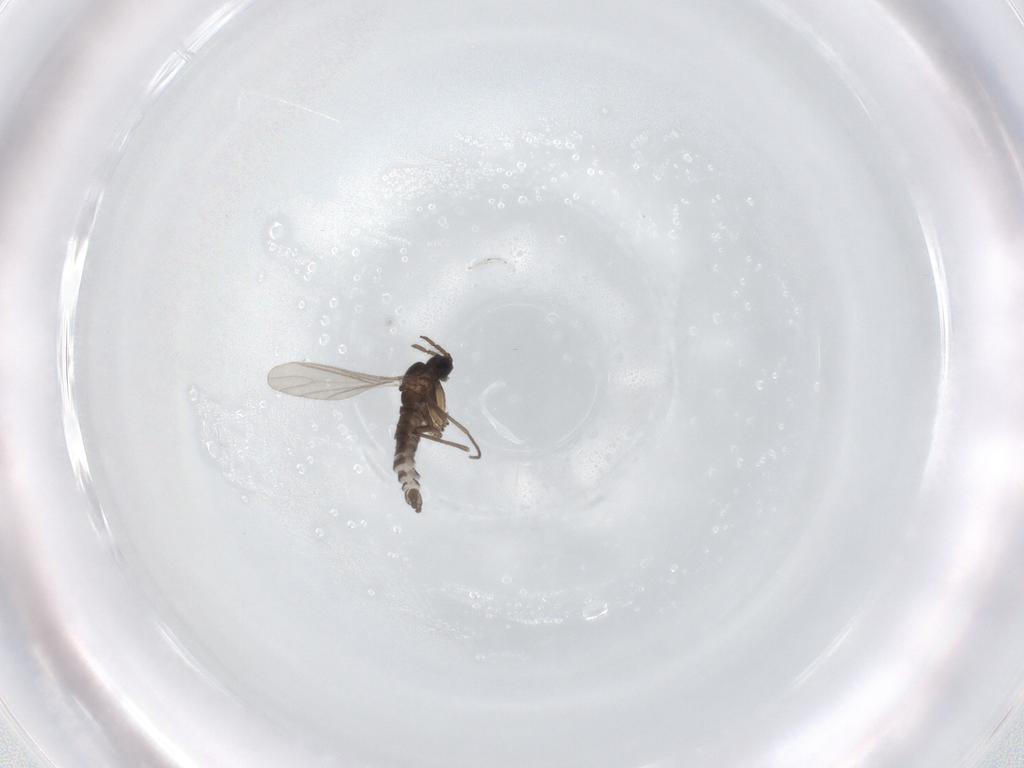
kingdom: Animalia
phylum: Arthropoda
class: Insecta
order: Diptera
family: Sciaridae
